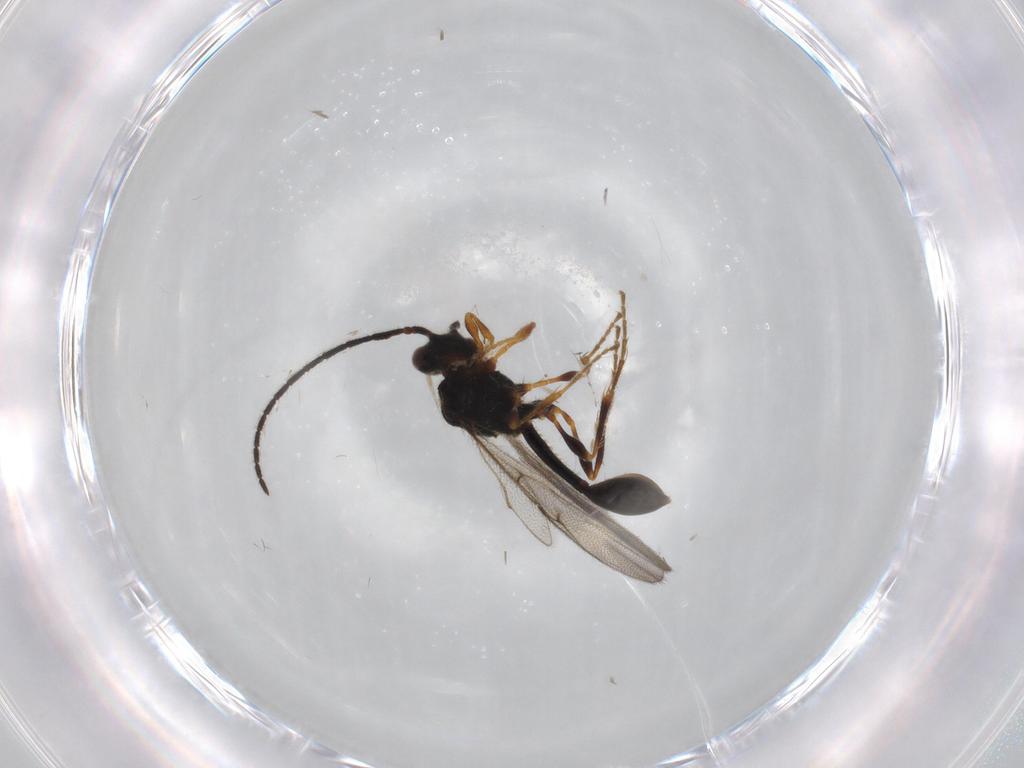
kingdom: Animalia
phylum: Arthropoda
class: Insecta
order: Hymenoptera
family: Diapriidae
